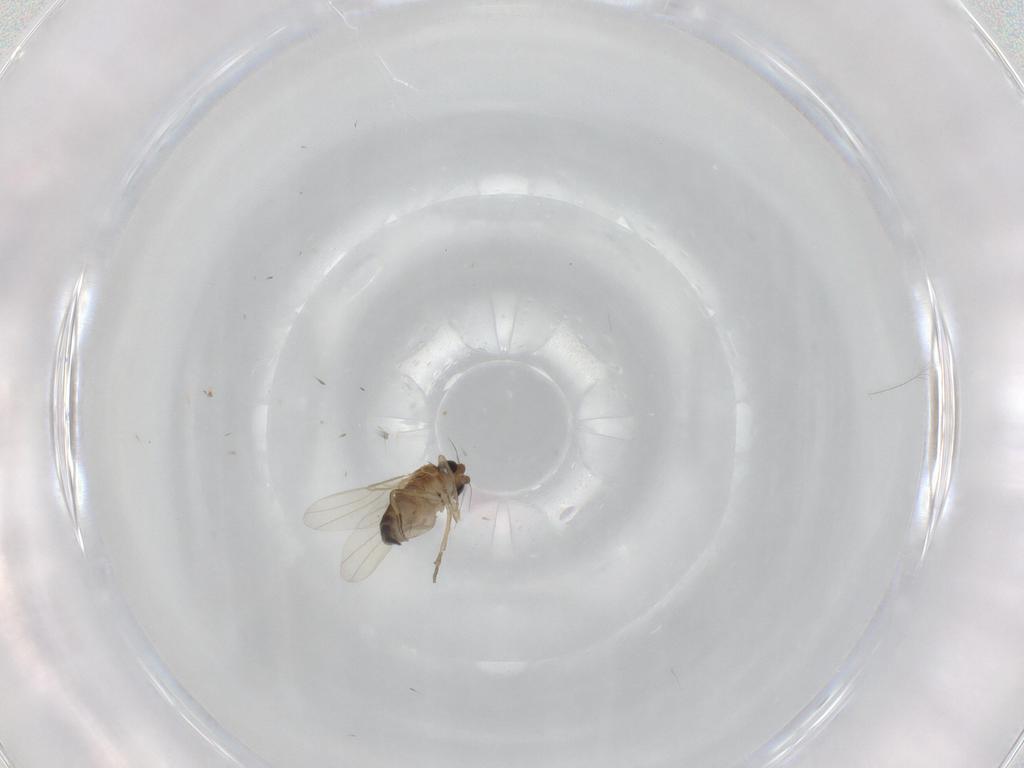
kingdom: Animalia
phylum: Arthropoda
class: Insecta
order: Diptera
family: Phoridae
